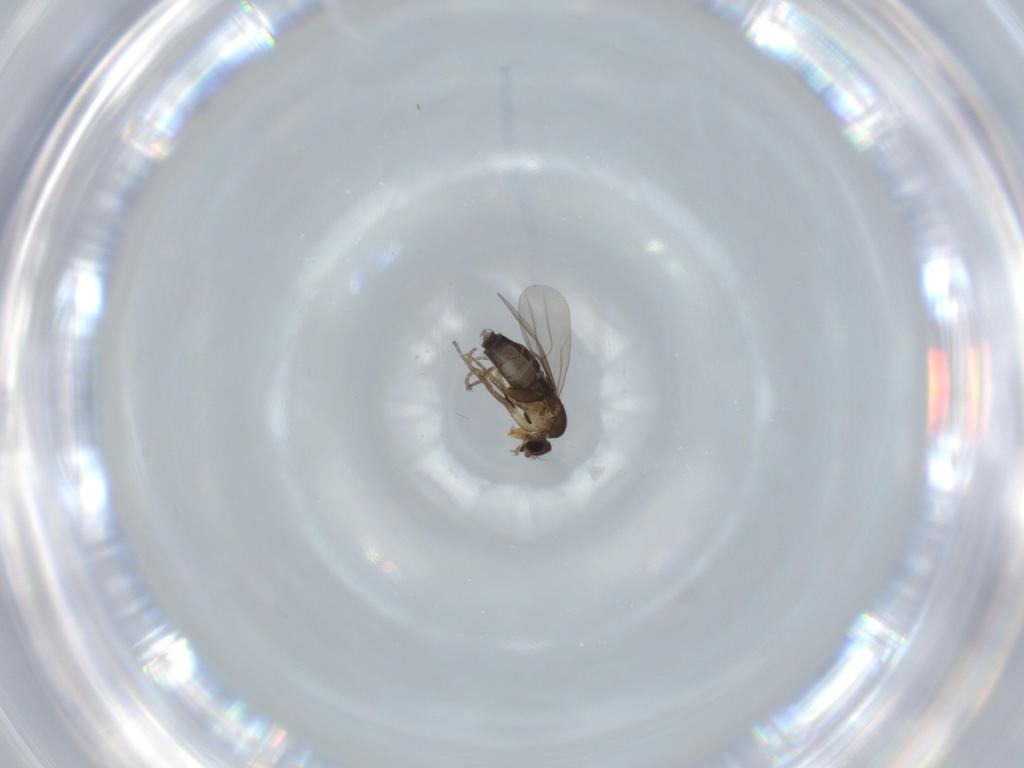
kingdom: Animalia
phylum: Arthropoda
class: Insecta
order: Diptera
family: Phoridae
